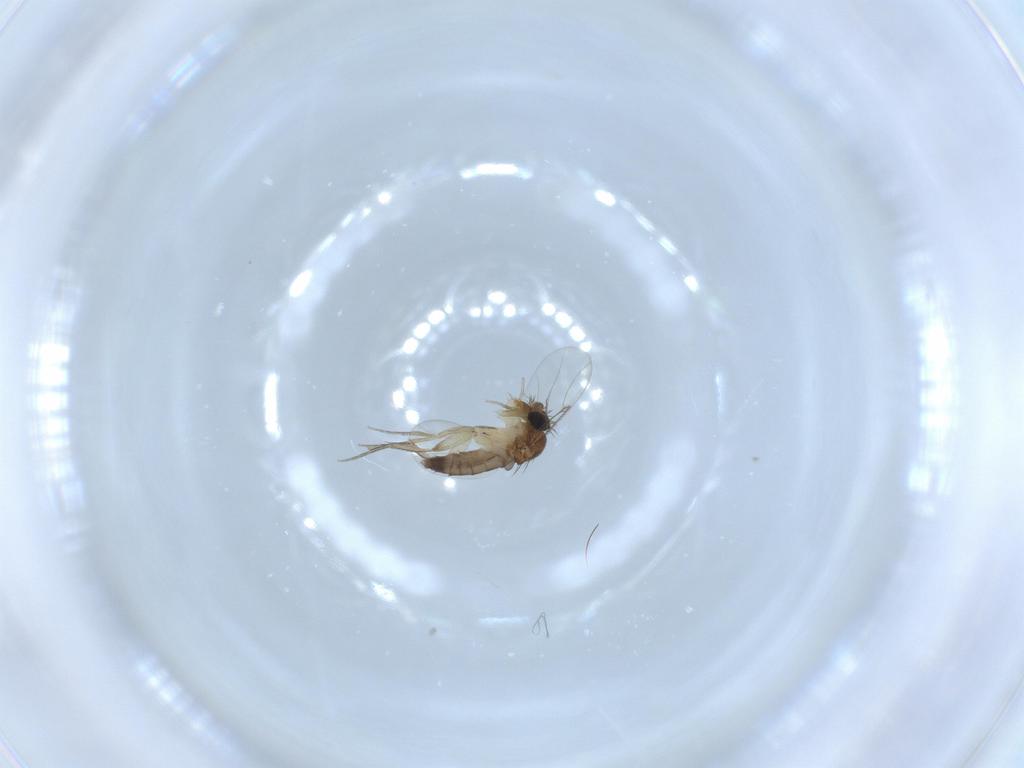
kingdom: Animalia
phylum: Arthropoda
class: Insecta
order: Diptera
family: Phoridae
